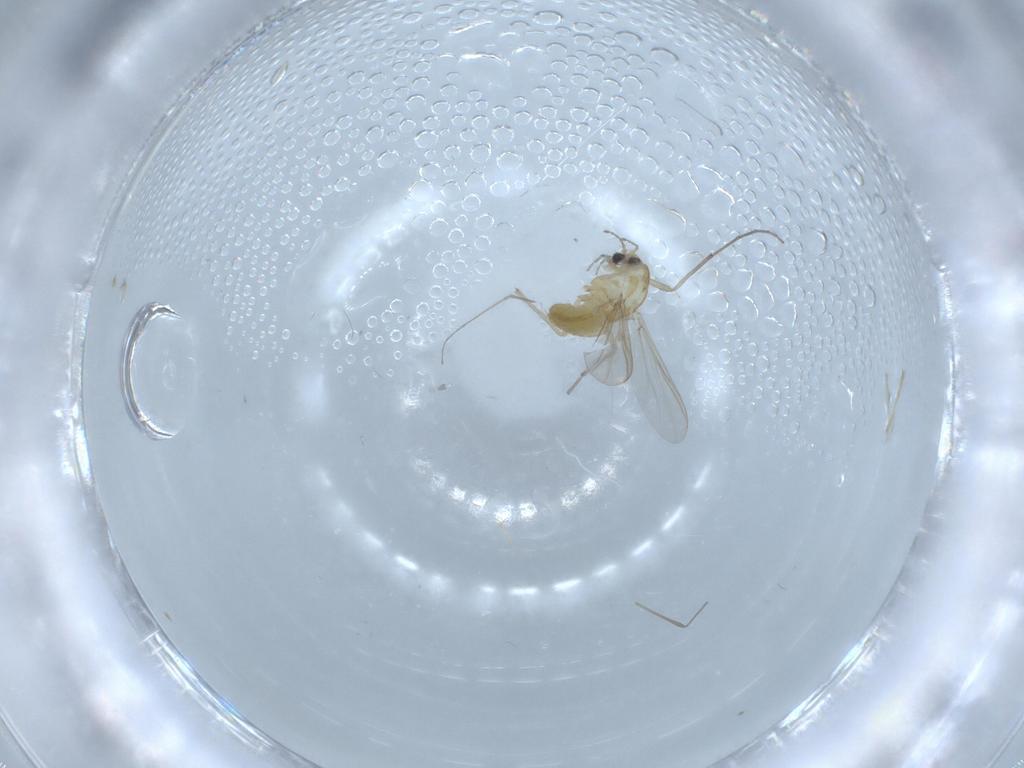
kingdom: Animalia
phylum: Arthropoda
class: Insecta
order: Diptera
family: Chironomidae
